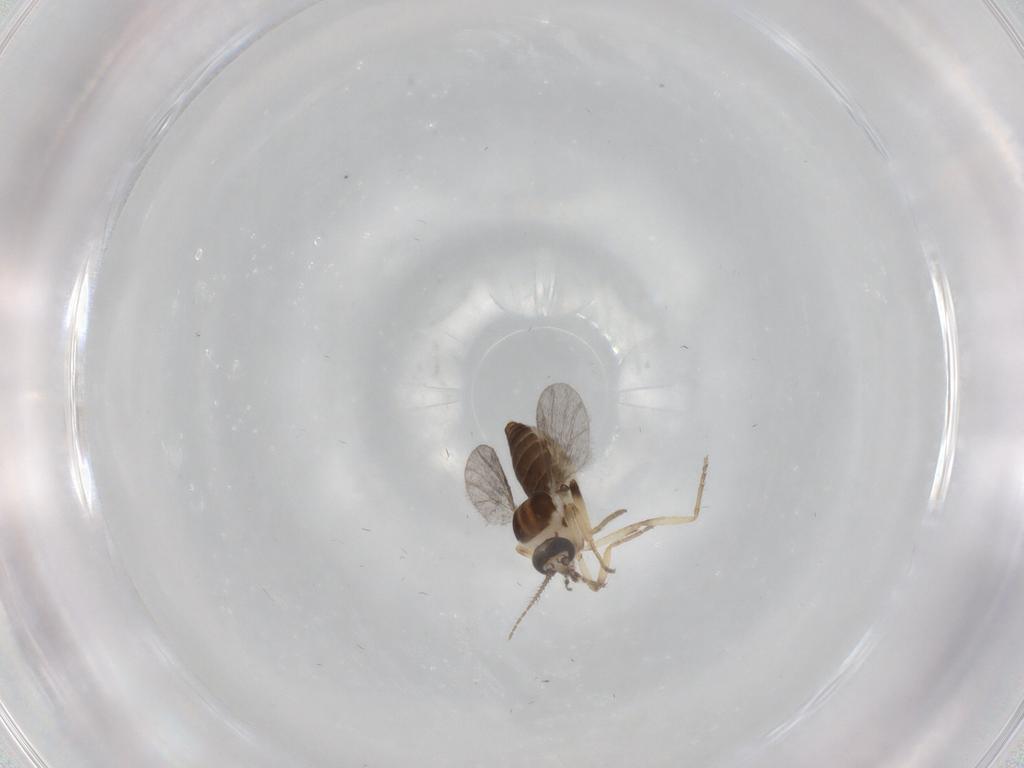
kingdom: Animalia
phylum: Arthropoda
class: Insecta
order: Diptera
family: Ceratopogonidae
